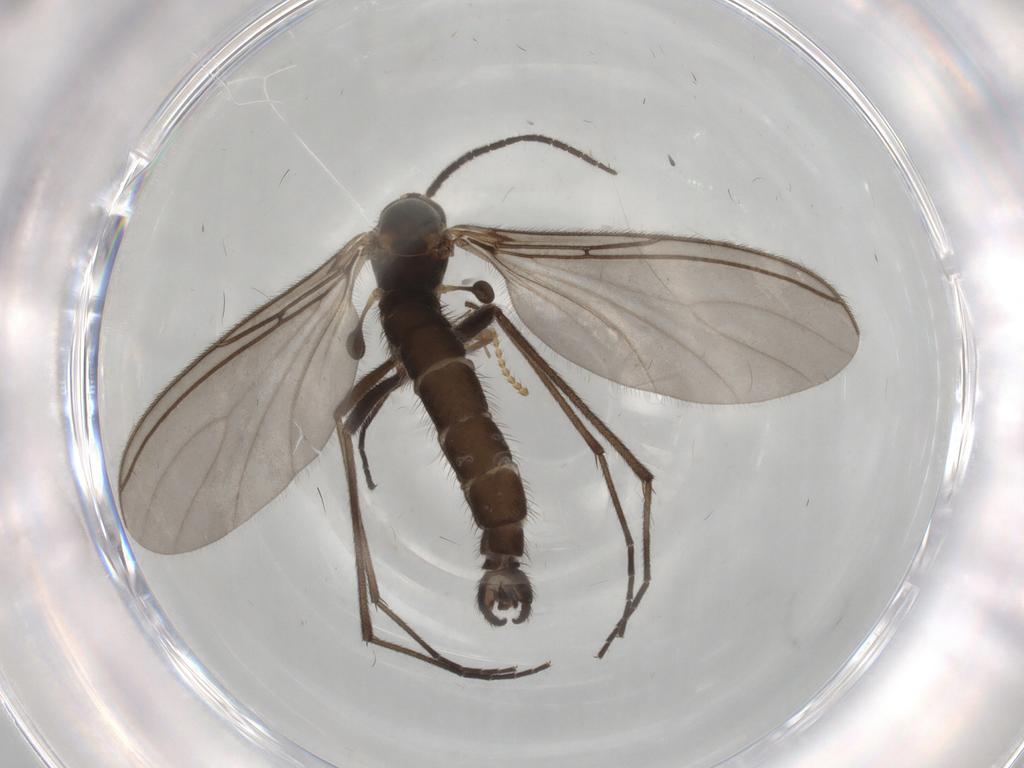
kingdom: Animalia
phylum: Arthropoda
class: Insecta
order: Diptera
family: Sciaridae
